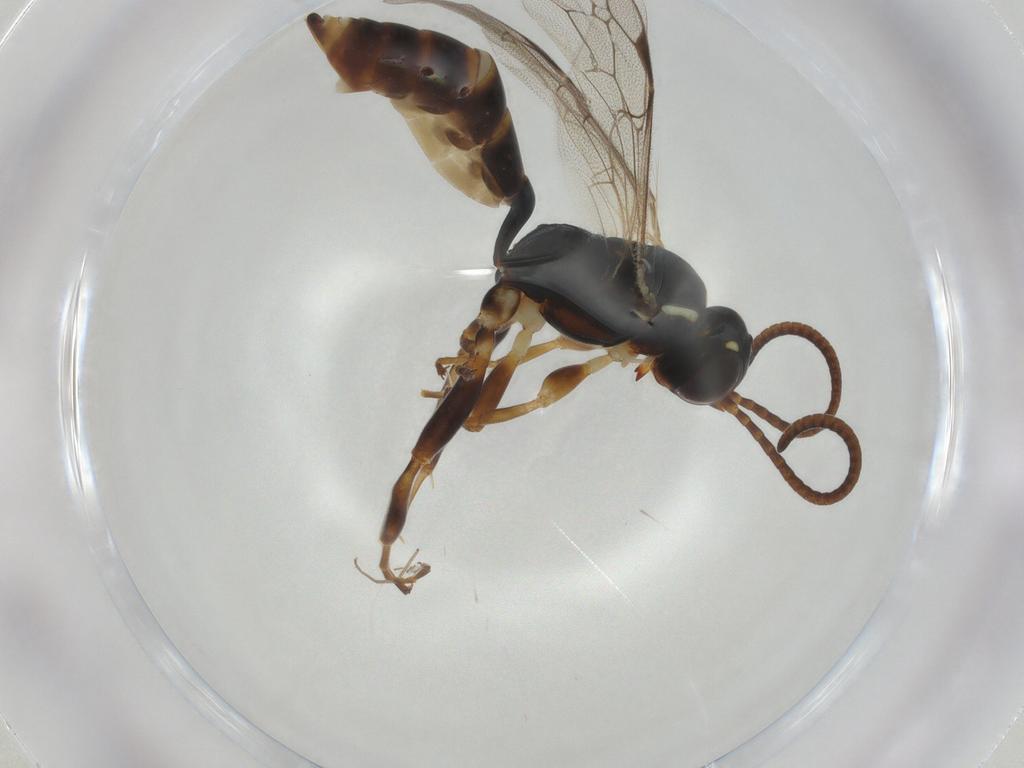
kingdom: Animalia
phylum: Arthropoda
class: Insecta
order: Hymenoptera
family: Ichneumonidae
